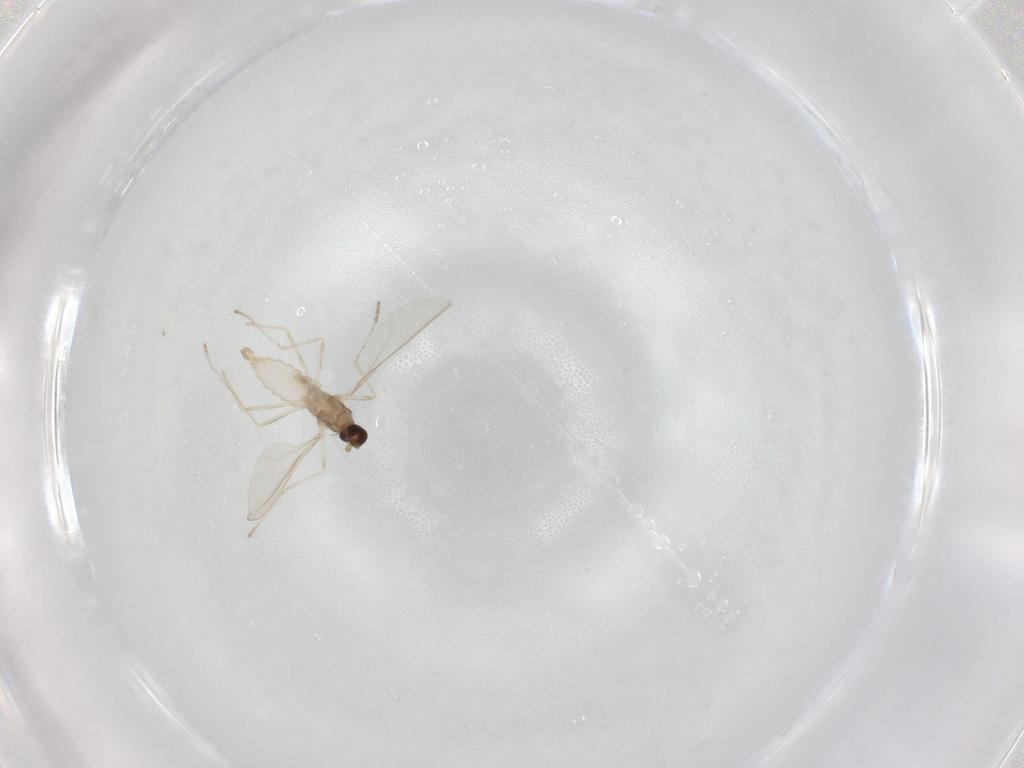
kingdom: Animalia
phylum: Arthropoda
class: Insecta
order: Diptera
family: Cecidomyiidae
